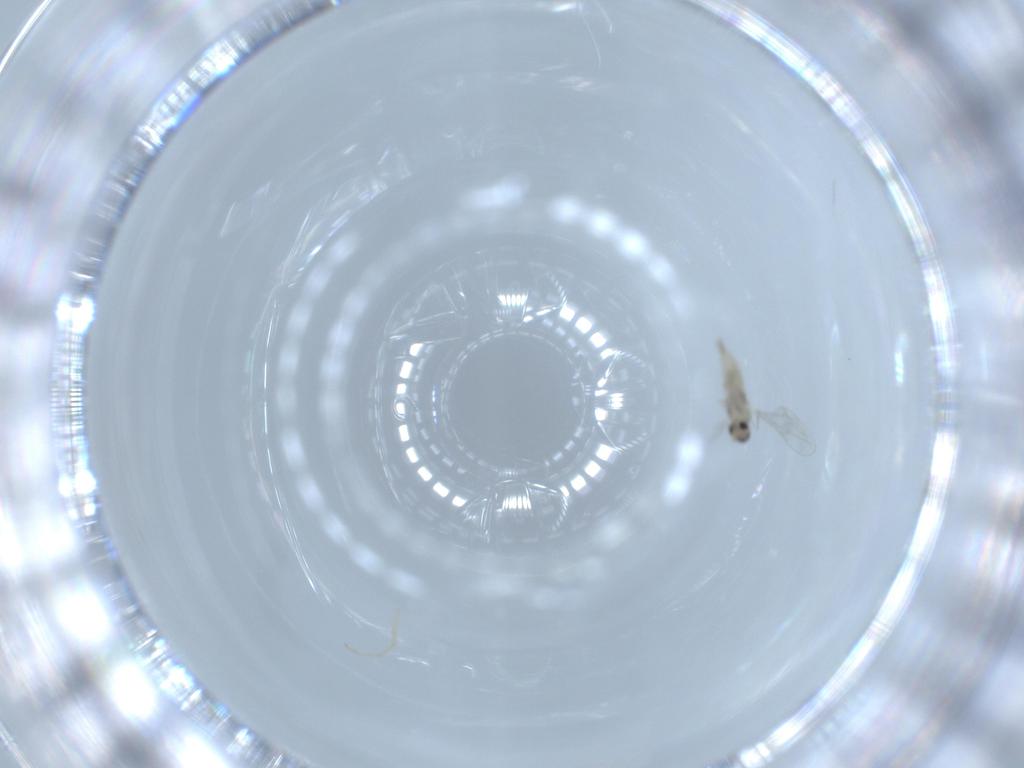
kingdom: Animalia
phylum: Arthropoda
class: Insecta
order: Diptera
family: Cecidomyiidae
